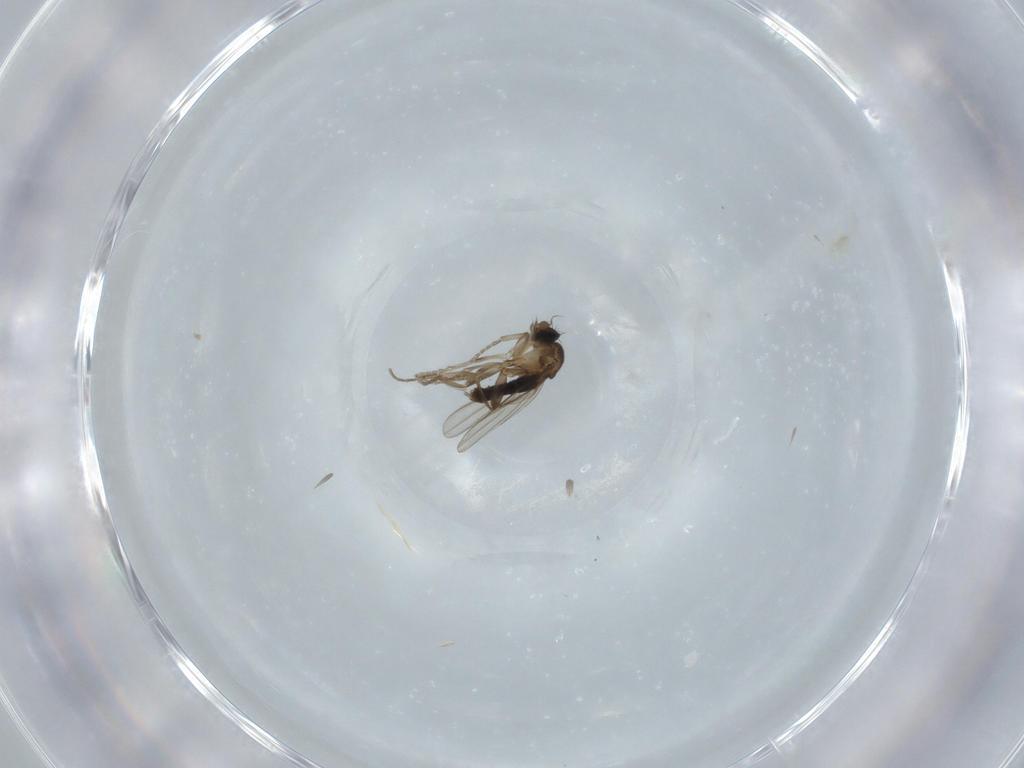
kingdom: Animalia
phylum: Arthropoda
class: Insecta
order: Diptera
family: Phoridae
